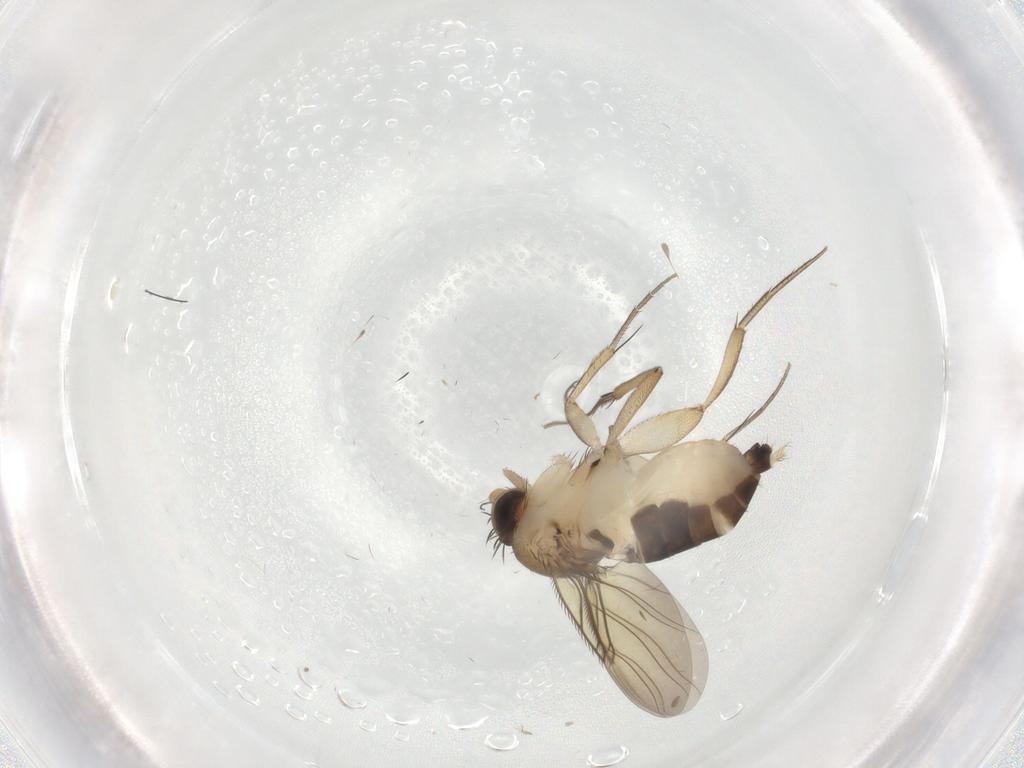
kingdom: Animalia
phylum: Arthropoda
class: Insecta
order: Diptera
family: Phoridae
